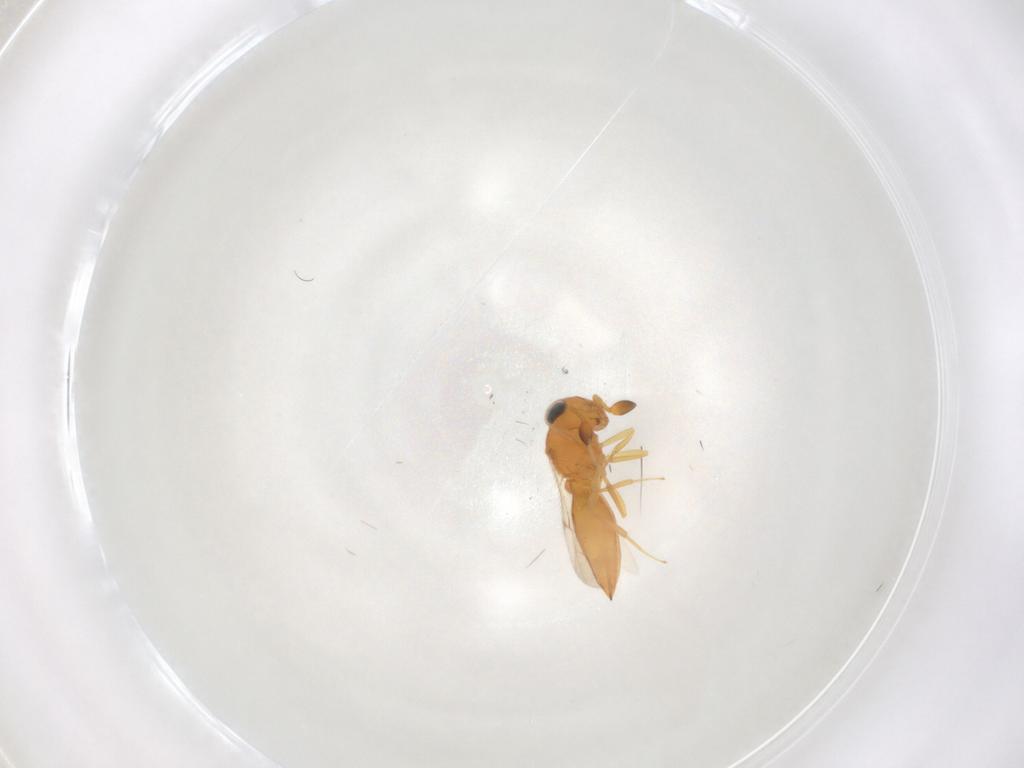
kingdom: Animalia
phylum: Arthropoda
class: Insecta
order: Hymenoptera
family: Scelionidae
